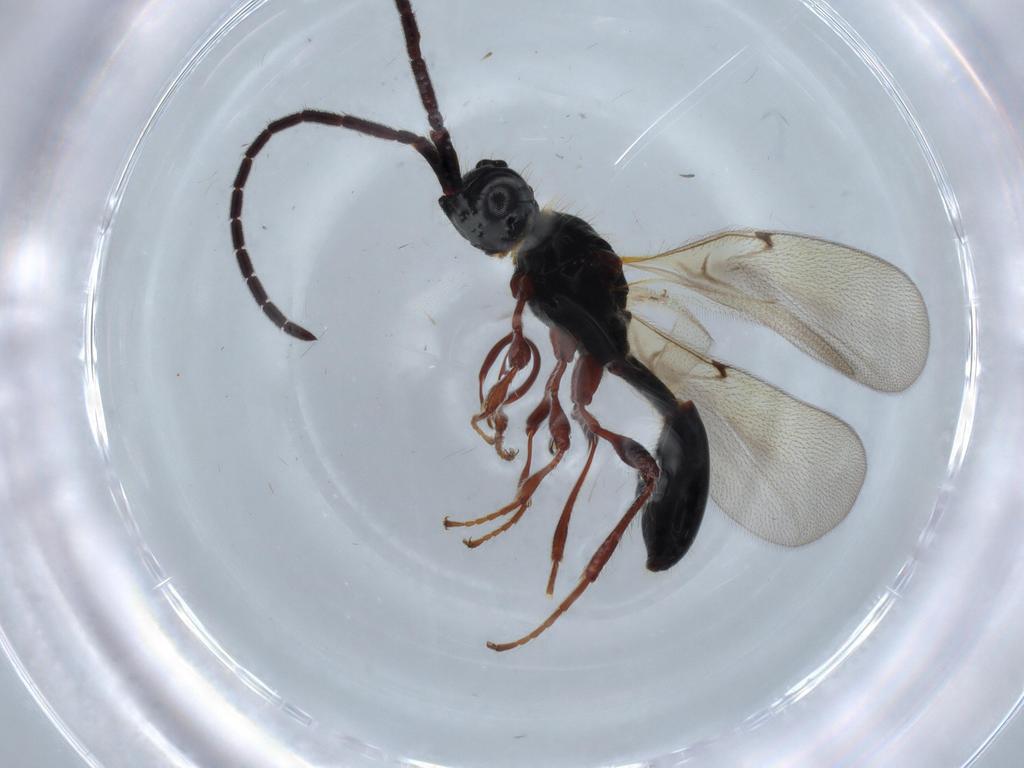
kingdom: Animalia
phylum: Arthropoda
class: Insecta
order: Hymenoptera
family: Diapriidae
